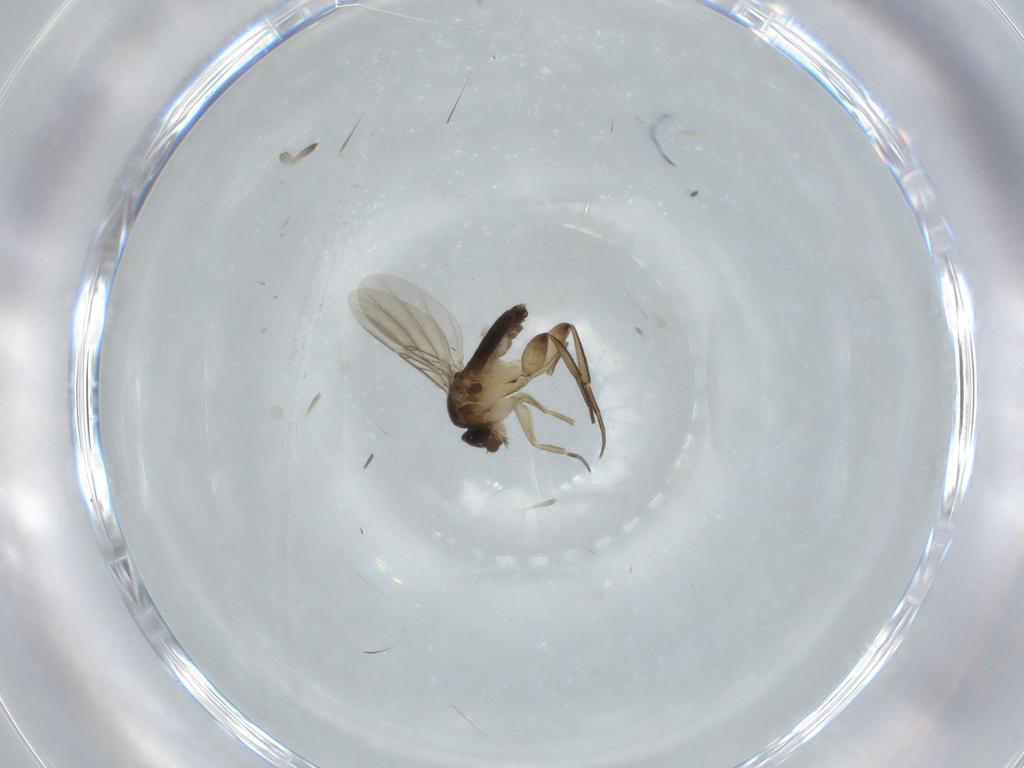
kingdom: Animalia
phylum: Arthropoda
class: Insecta
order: Diptera
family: Phoridae
